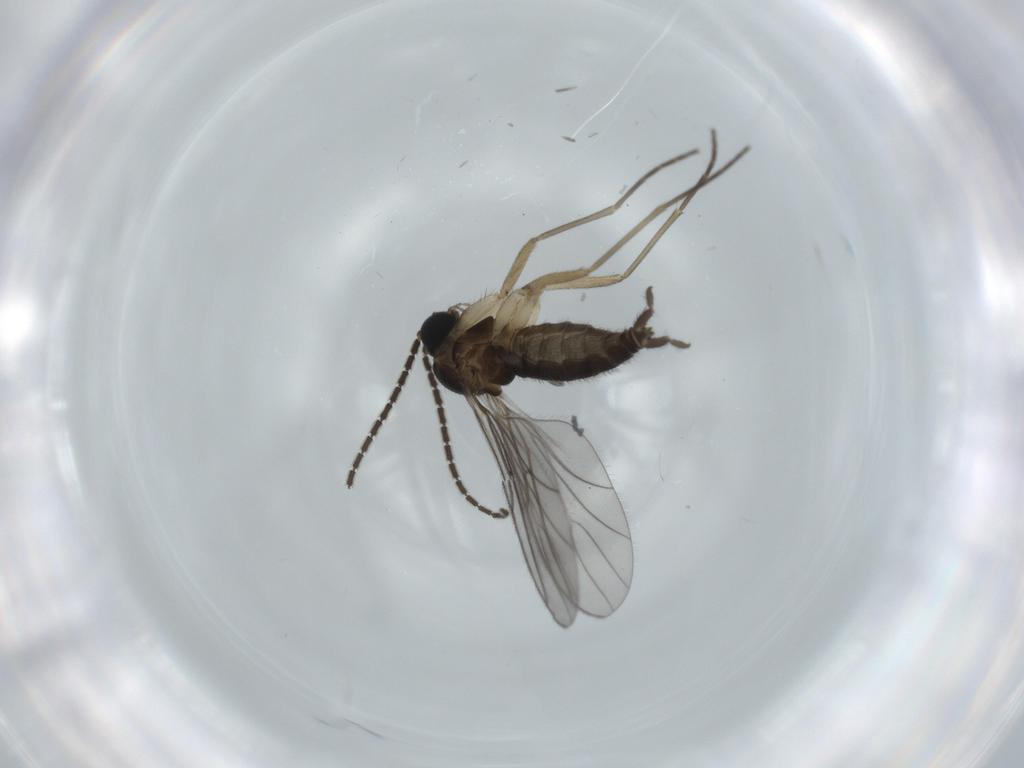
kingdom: Animalia
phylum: Arthropoda
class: Insecta
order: Diptera
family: Sciaridae
